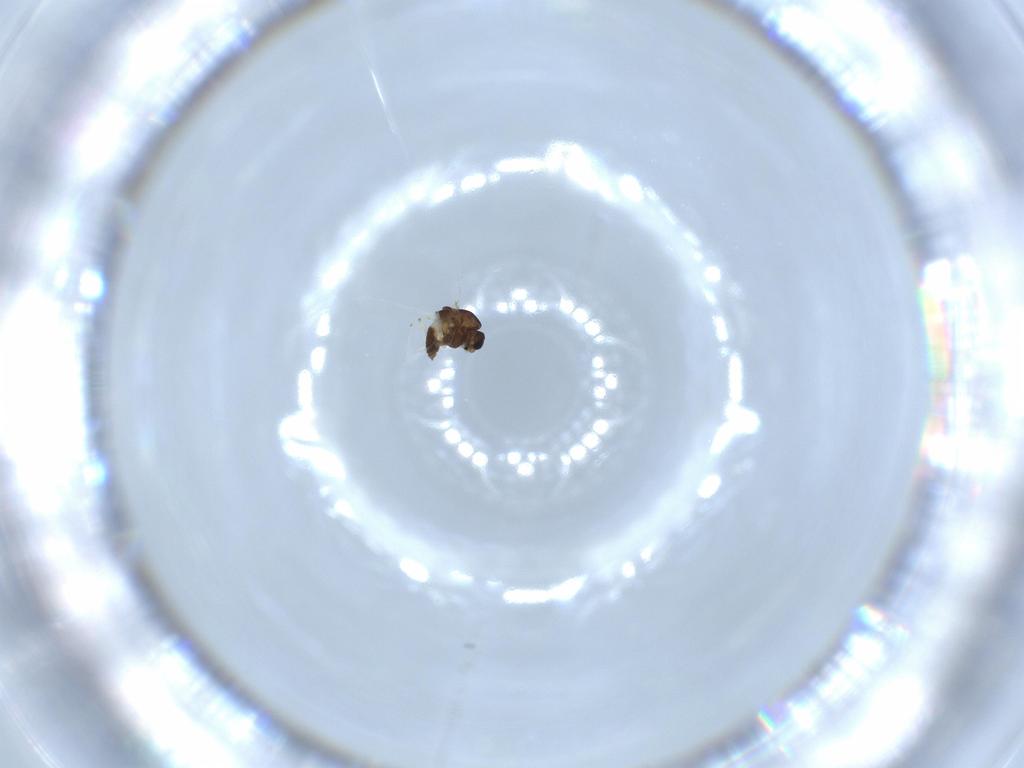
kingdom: Animalia
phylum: Arthropoda
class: Insecta
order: Diptera
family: Chironomidae
